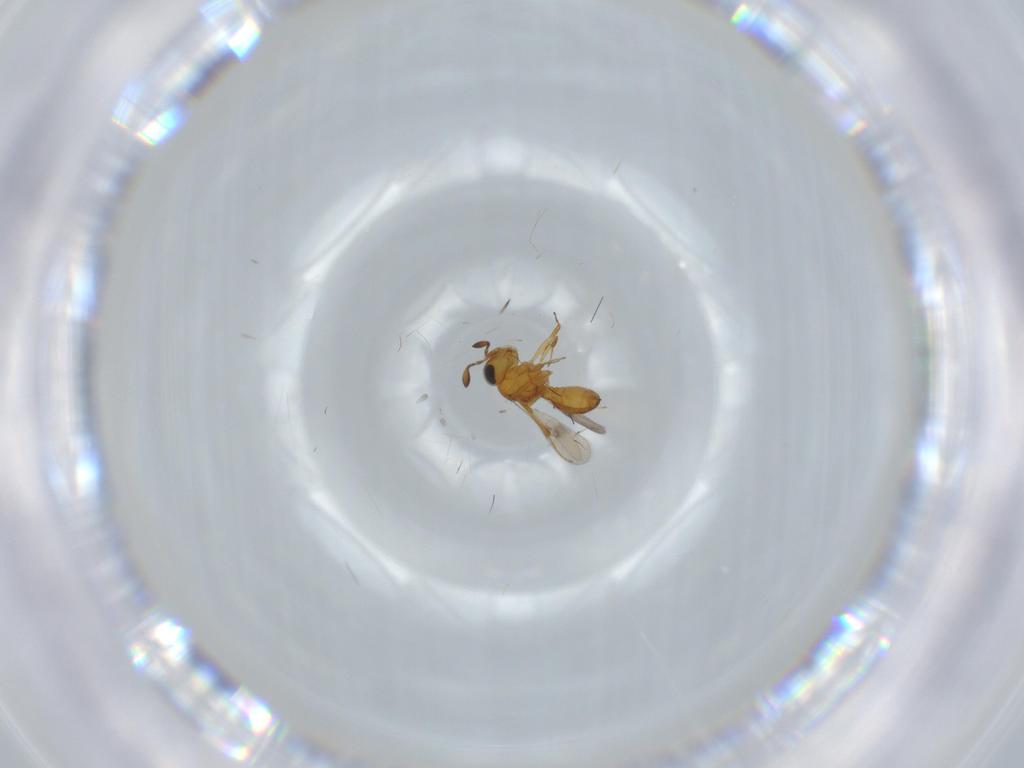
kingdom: Animalia
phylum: Arthropoda
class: Insecta
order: Hymenoptera
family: Scelionidae
